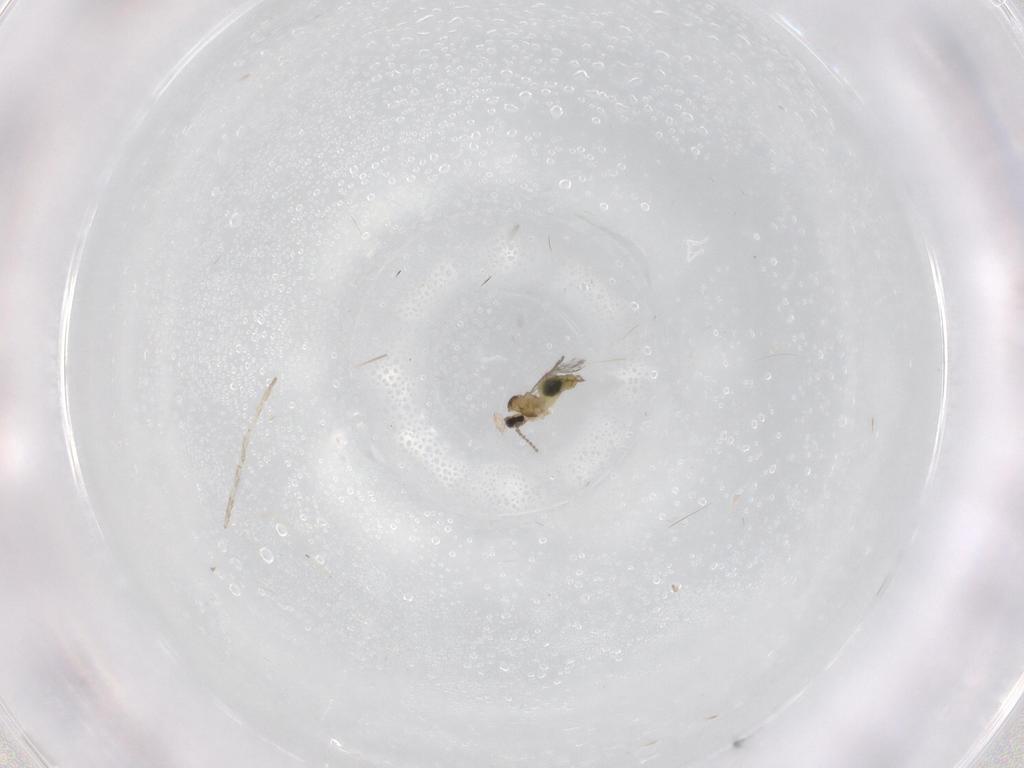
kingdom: Animalia
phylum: Arthropoda
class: Insecta
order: Diptera
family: Cecidomyiidae
